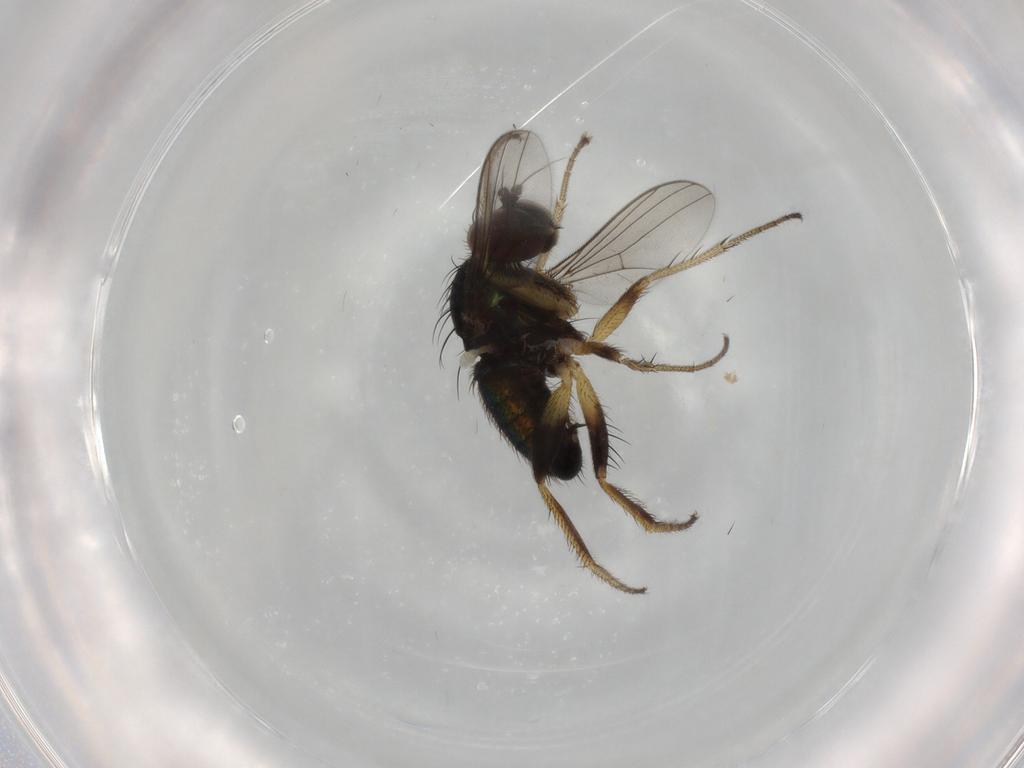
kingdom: Animalia
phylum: Arthropoda
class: Insecta
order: Diptera
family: Dolichopodidae
